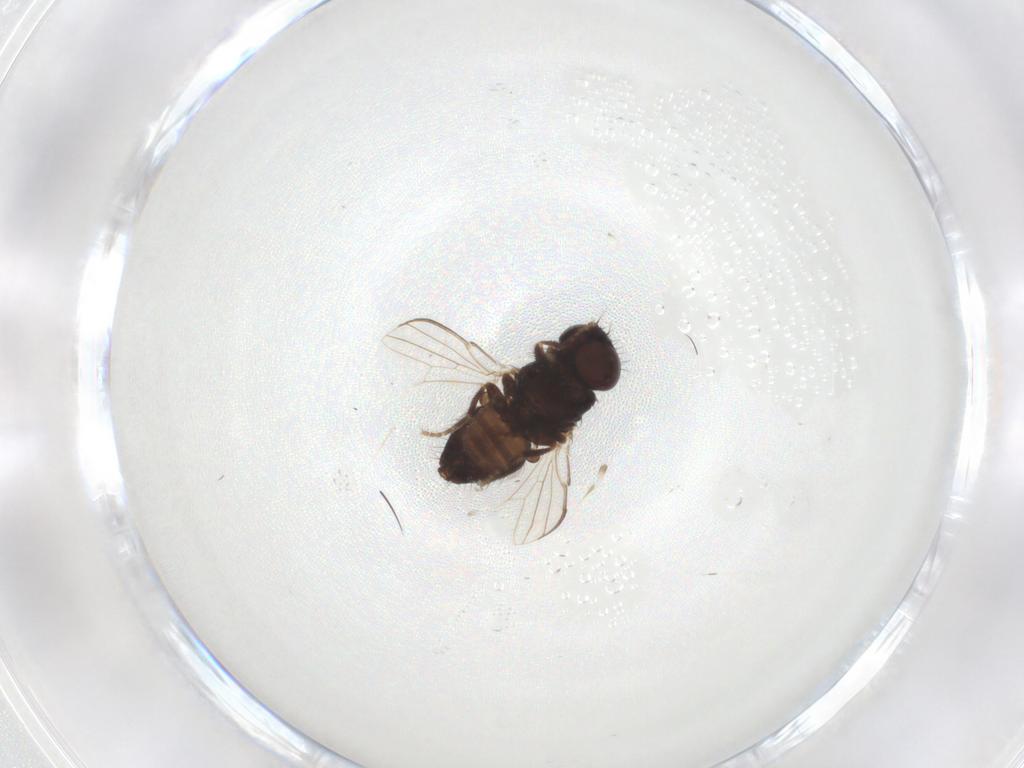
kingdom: Animalia
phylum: Arthropoda
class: Insecta
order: Diptera
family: Milichiidae
